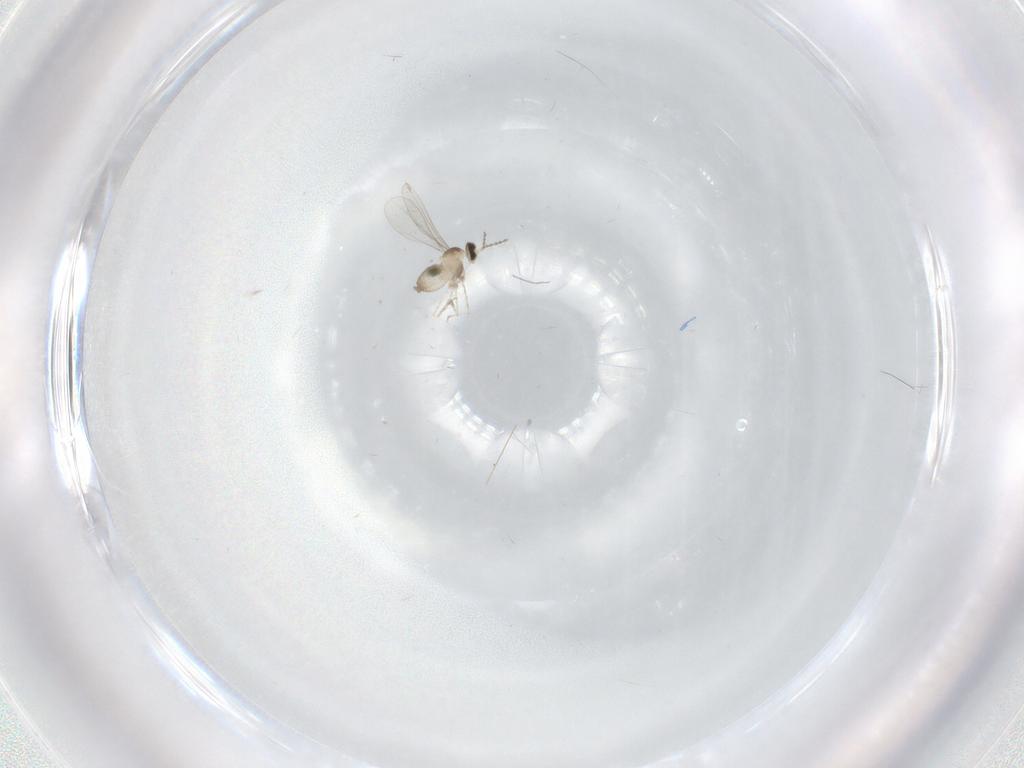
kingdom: Animalia
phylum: Arthropoda
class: Insecta
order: Diptera
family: Cecidomyiidae
